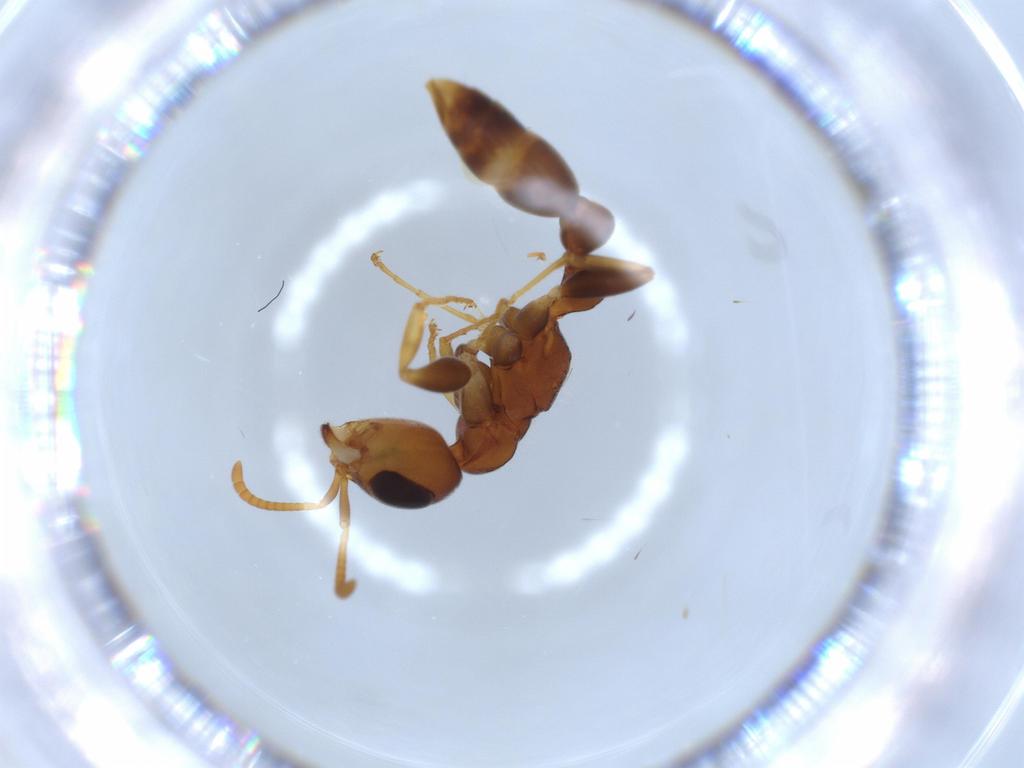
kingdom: Animalia
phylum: Arthropoda
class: Insecta
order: Hymenoptera
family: Formicidae
